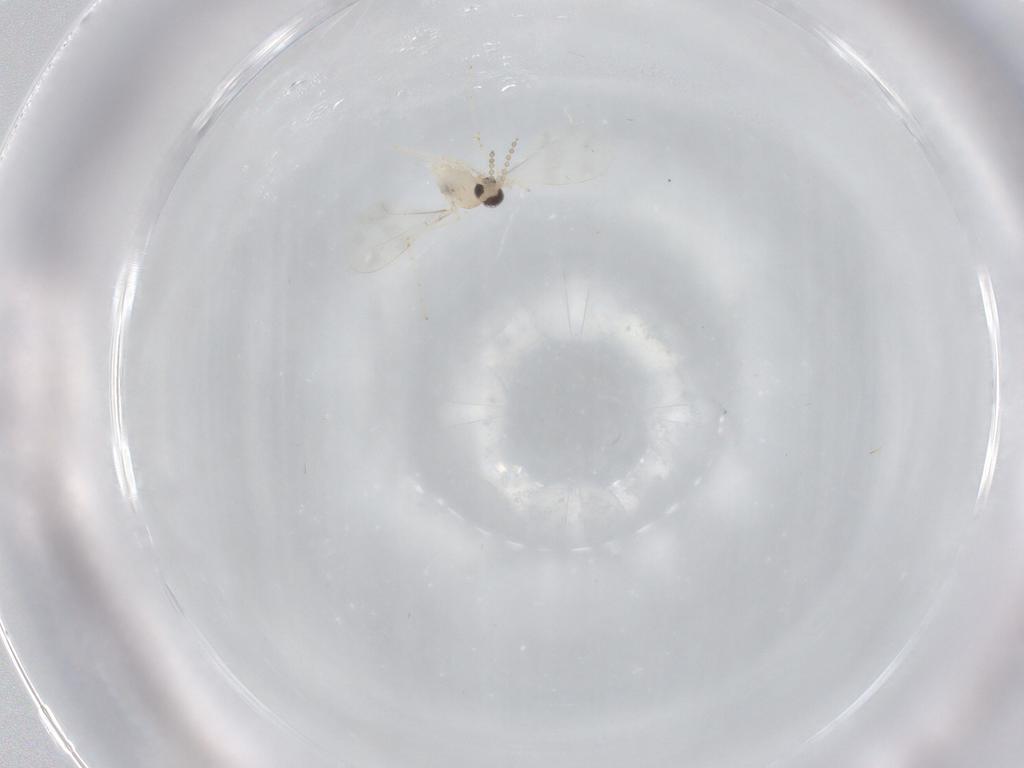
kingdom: Animalia
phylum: Arthropoda
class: Insecta
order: Diptera
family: Cecidomyiidae
